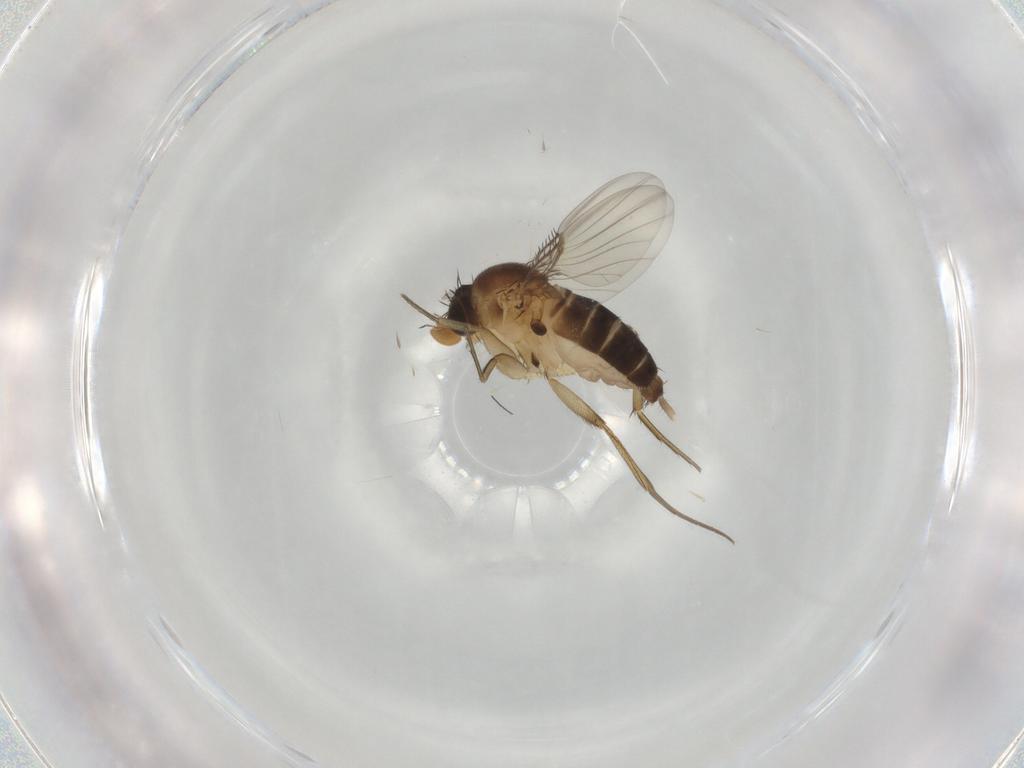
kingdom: Animalia
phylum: Arthropoda
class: Insecta
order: Diptera
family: Phoridae
